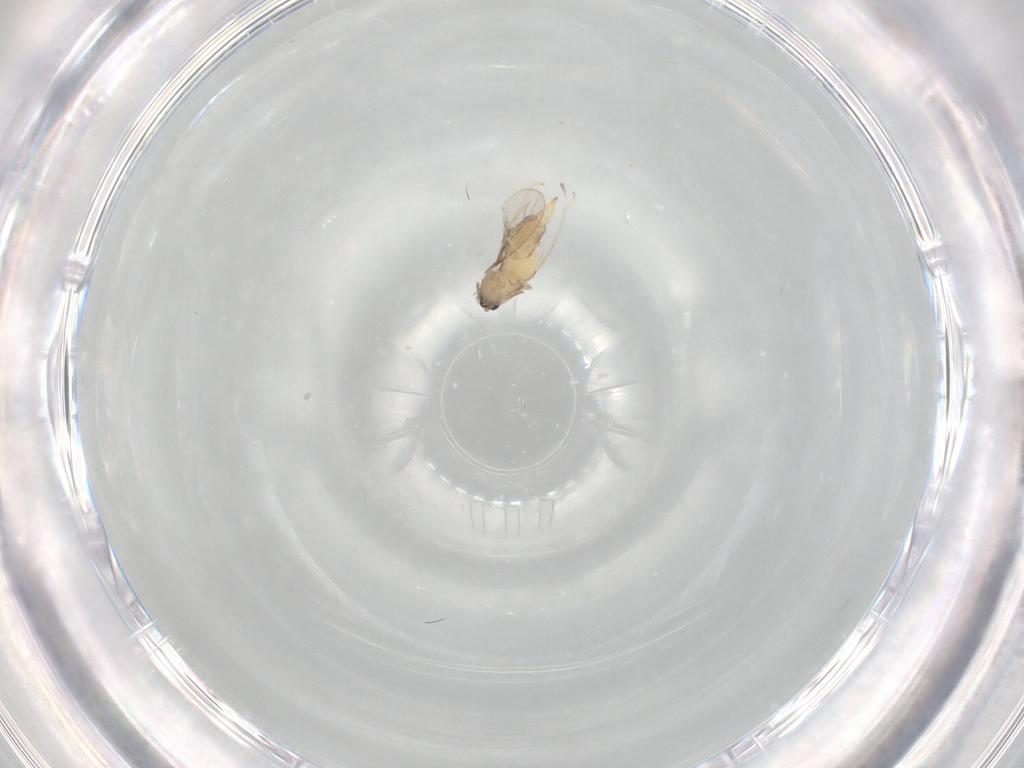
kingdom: Animalia
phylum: Arthropoda
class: Insecta
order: Diptera
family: Cecidomyiidae
